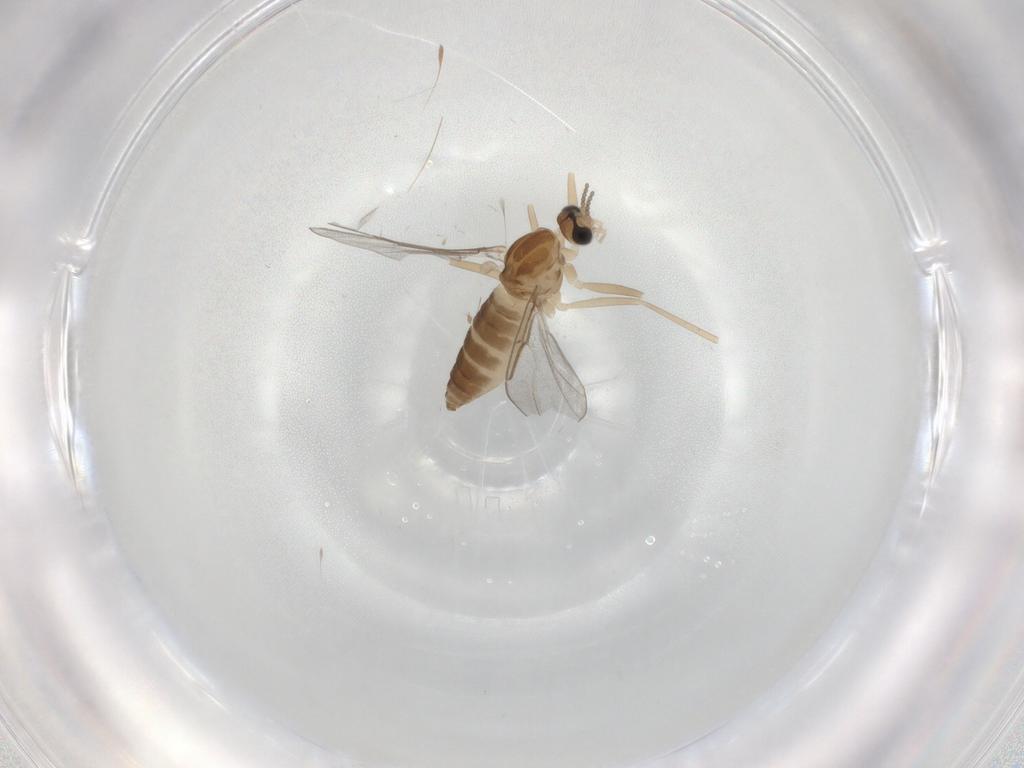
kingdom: Animalia
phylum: Arthropoda
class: Insecta
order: Diptera
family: Cecidomyiidae
